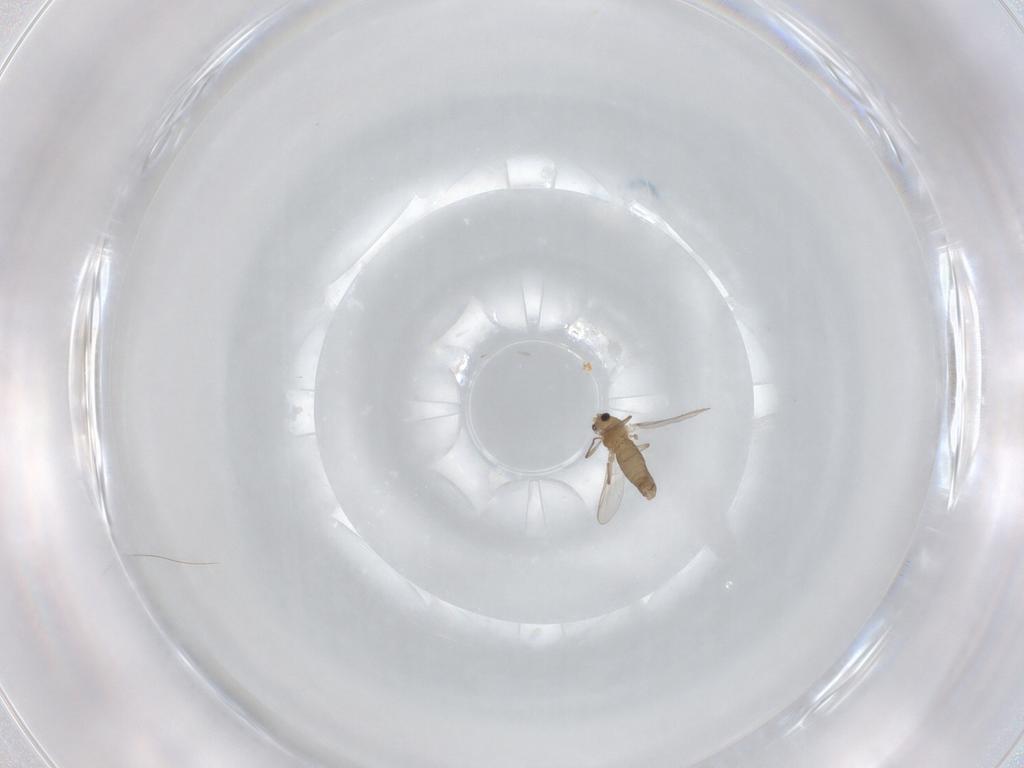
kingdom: Animalia
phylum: Arthropoda
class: Insecta
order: Diptera
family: Chironomidae
